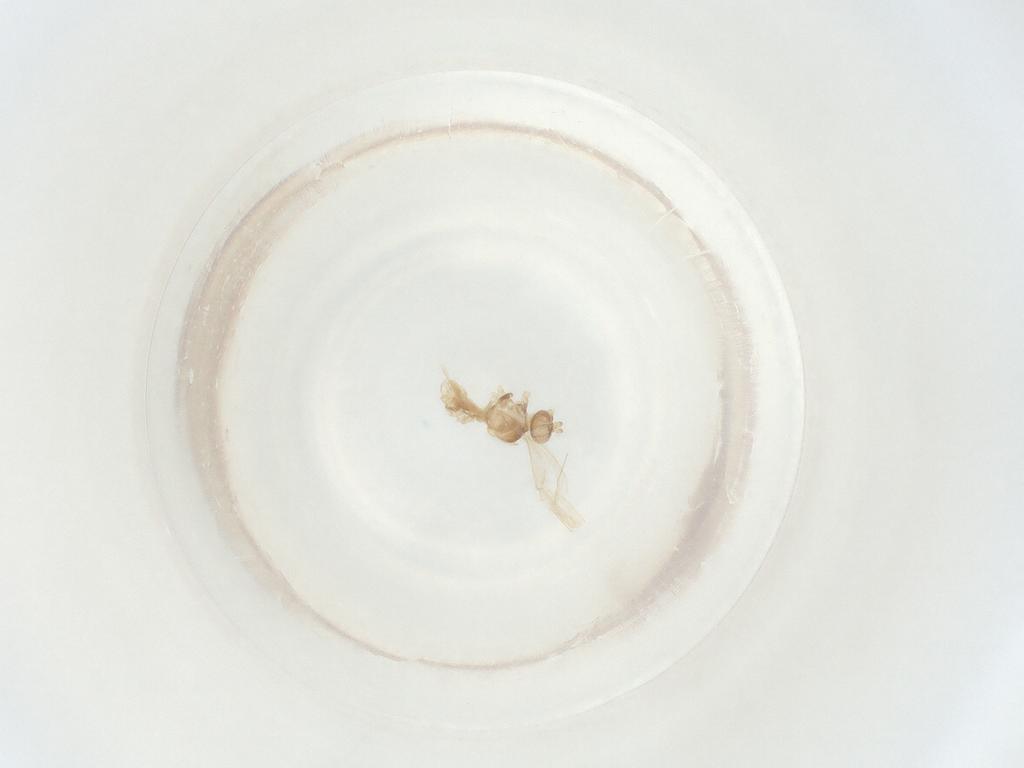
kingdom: Animalia
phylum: Arthropoda
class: Insecta
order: Diptera
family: Cecidomyiidae
